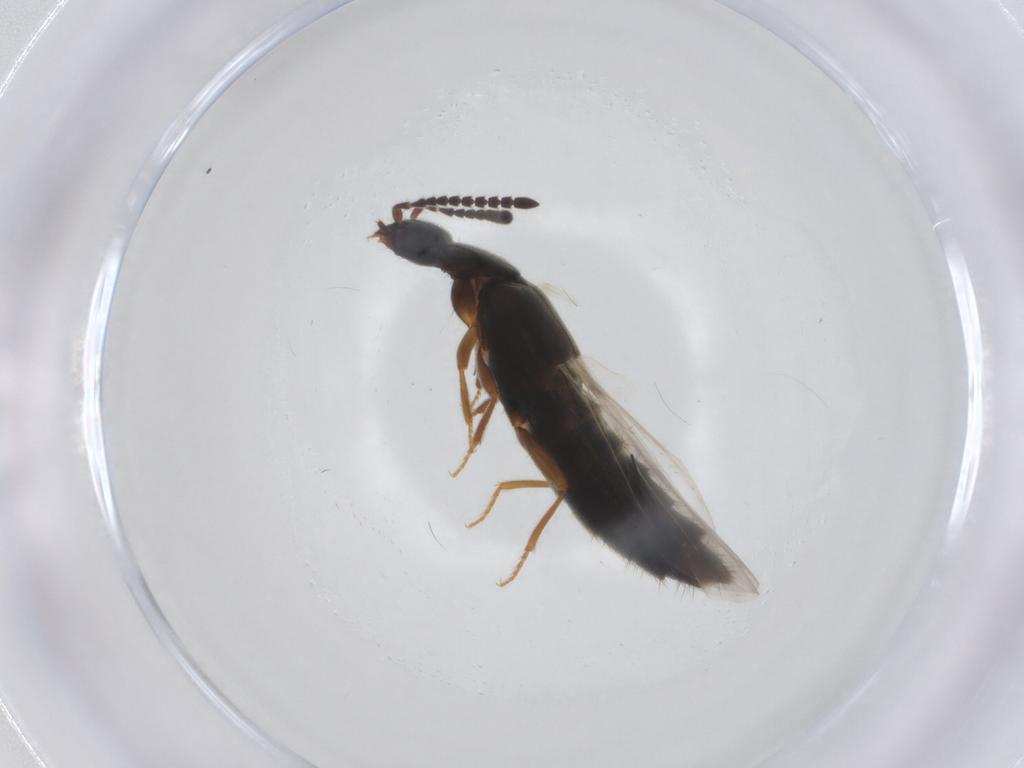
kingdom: Animalia
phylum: Arthropoda
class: Insecta
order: Coleoptera
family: Staphylinidae
